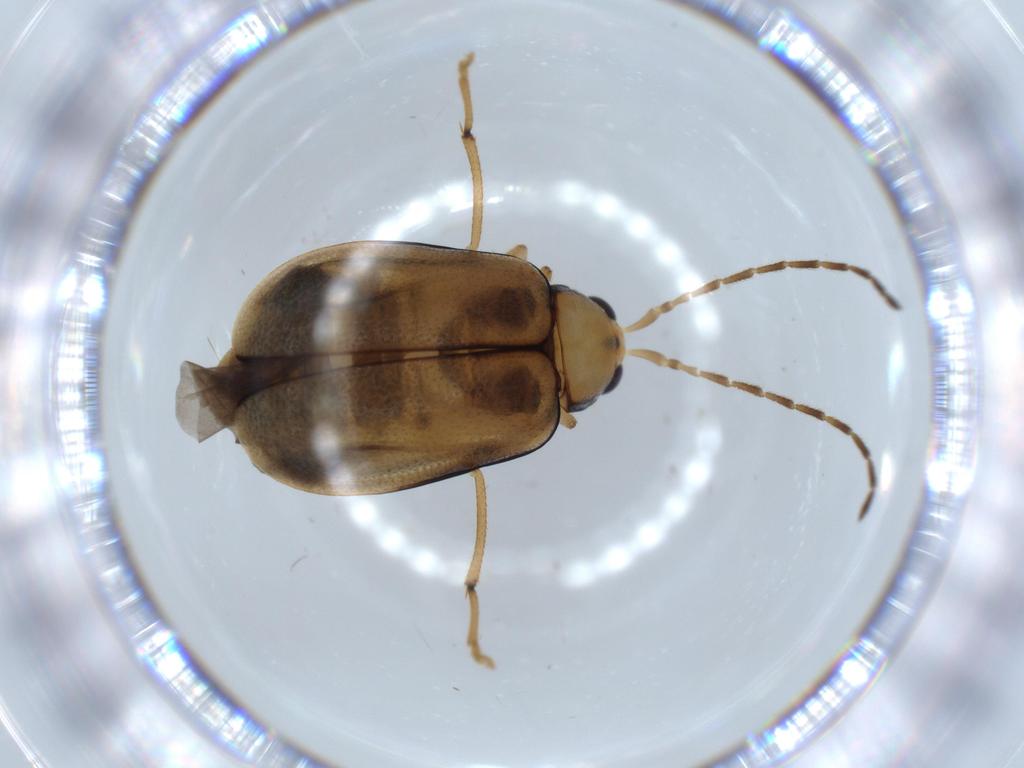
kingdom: Animalia
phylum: Arthropoda
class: Insecta
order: Coleoptera
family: Chrysomelidae
